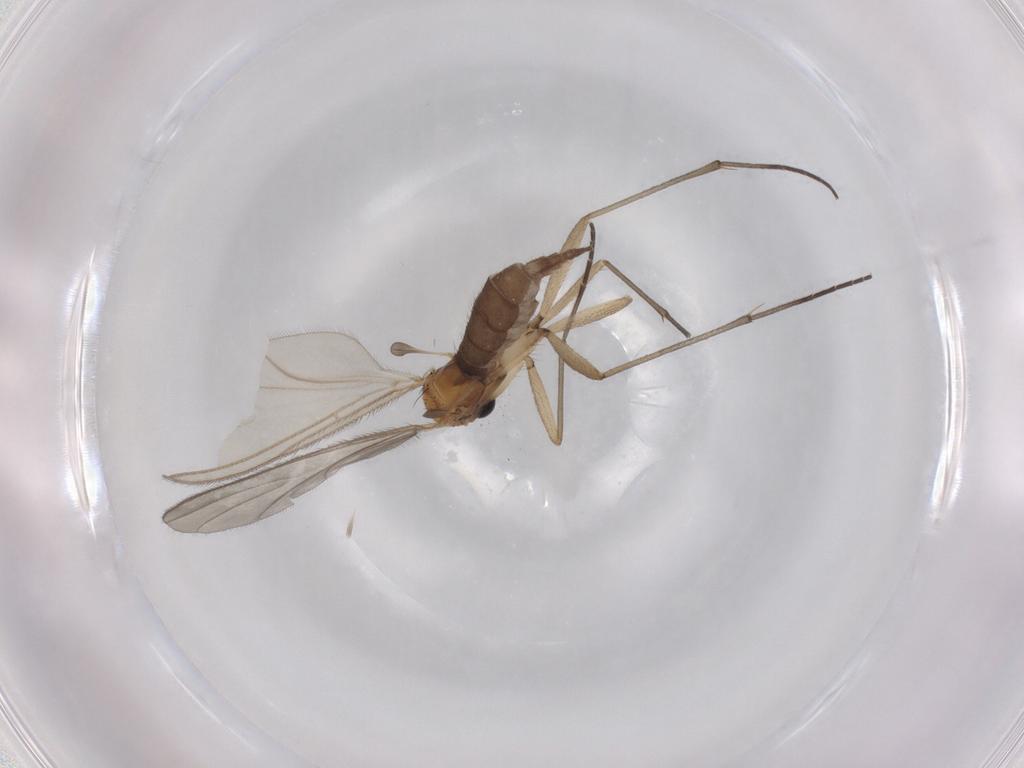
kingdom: Animalia
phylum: Arthropoda
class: Insecta
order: Diptera
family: Sciaridae
